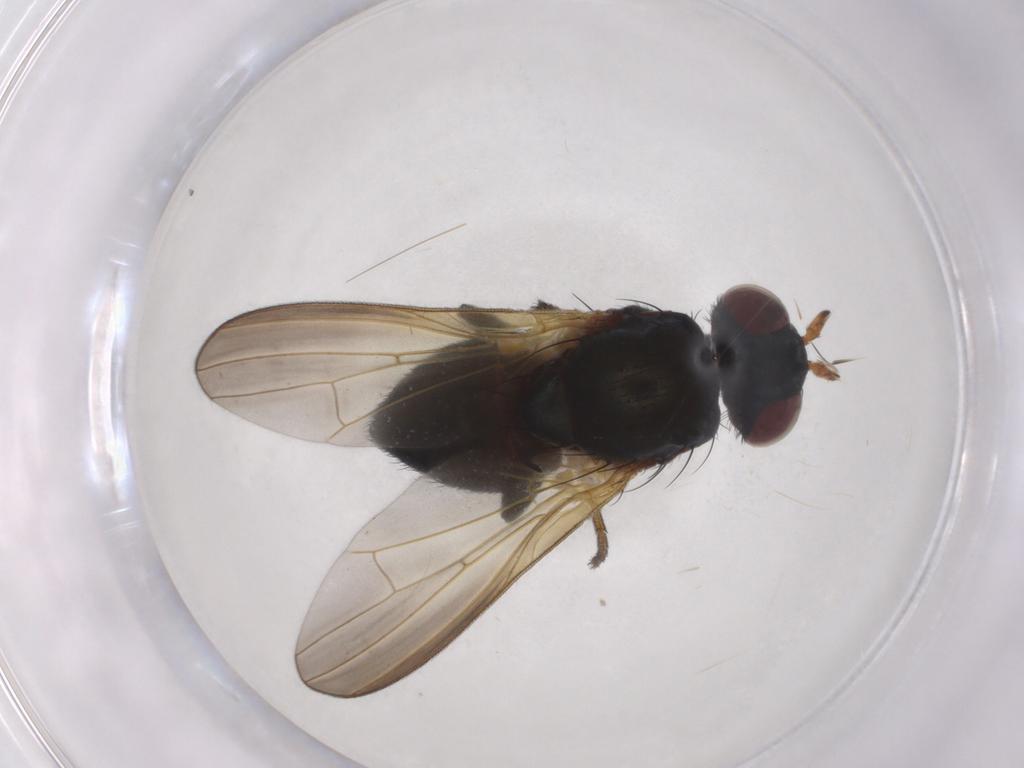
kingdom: Animalia
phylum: Arthropoda
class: Insecta
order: Diptera
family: Lauxaniidae
